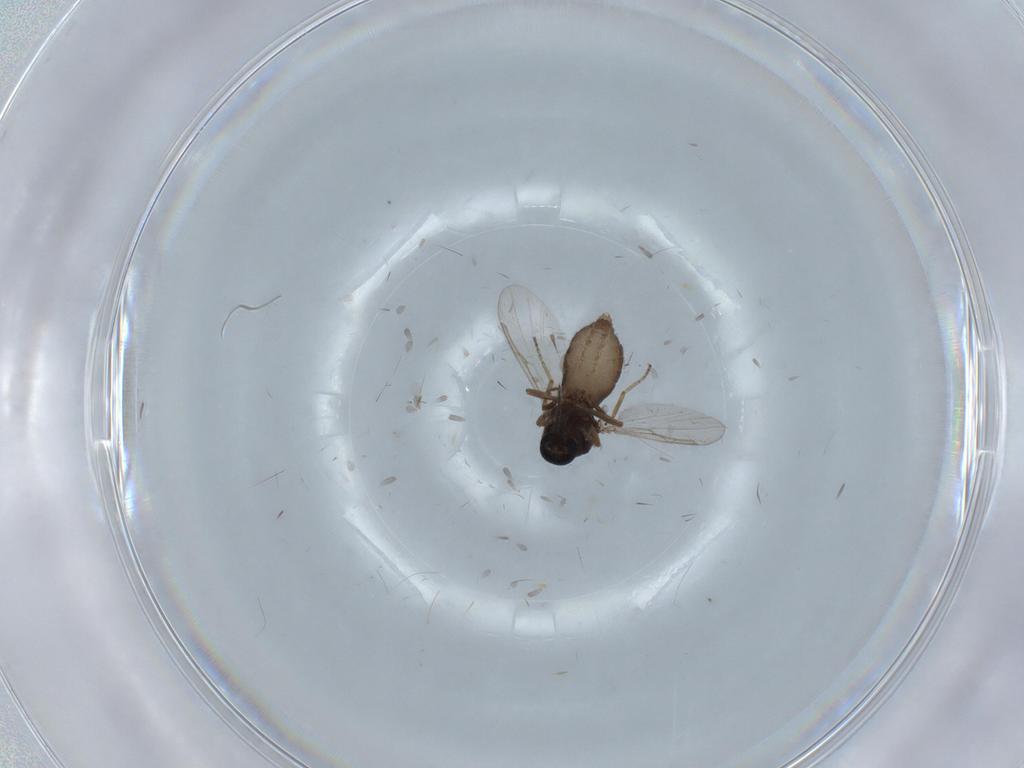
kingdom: Animalia
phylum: Arthropoda
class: Insecta
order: Diptera
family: Ceratopogonidae
